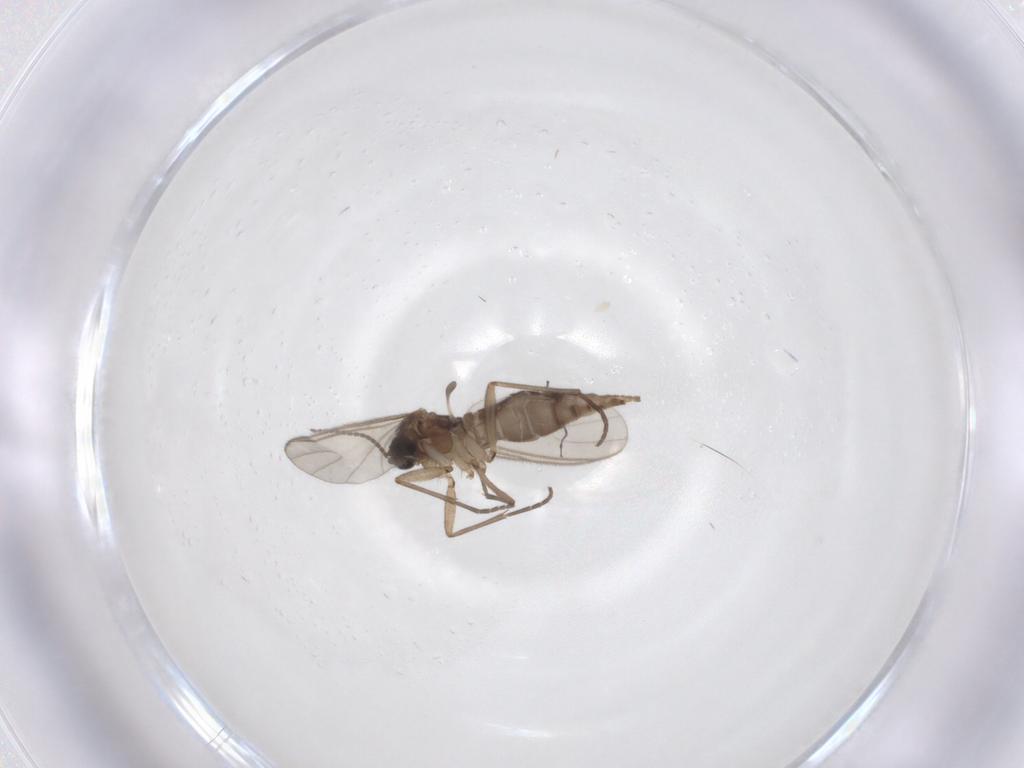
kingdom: Animalia
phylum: Arthropoda
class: Insecta
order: Diptera
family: Sciaridae
